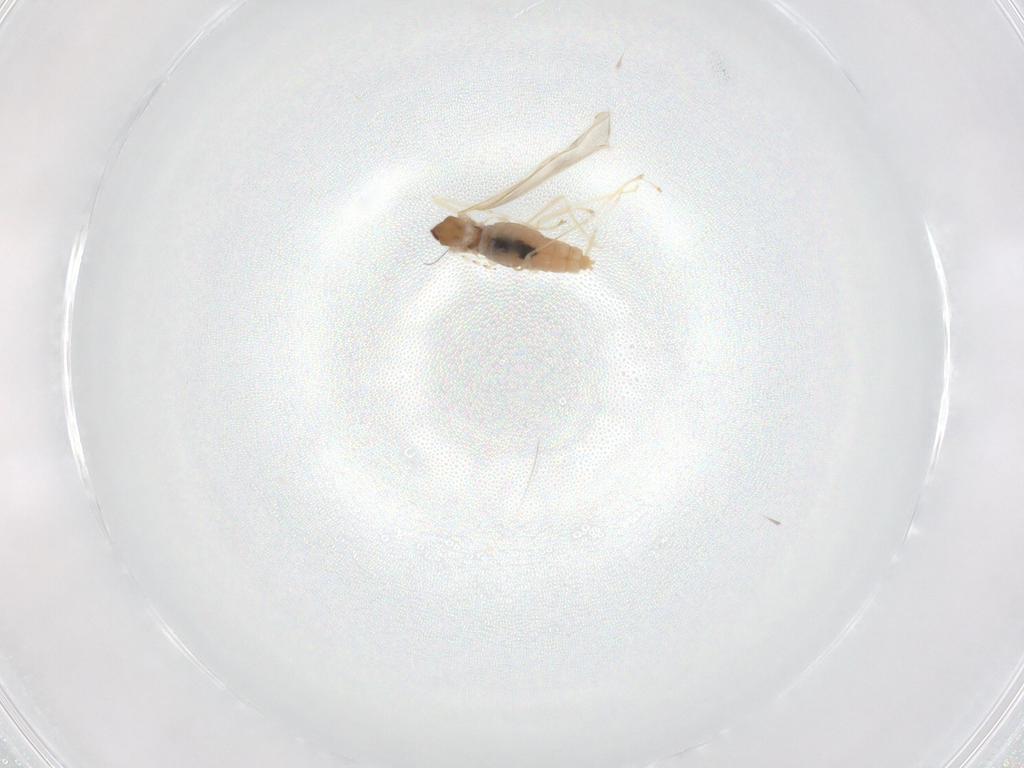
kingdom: Animalia
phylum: Arthropoda
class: Insecta
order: Diptera
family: Cecidomyiidae
